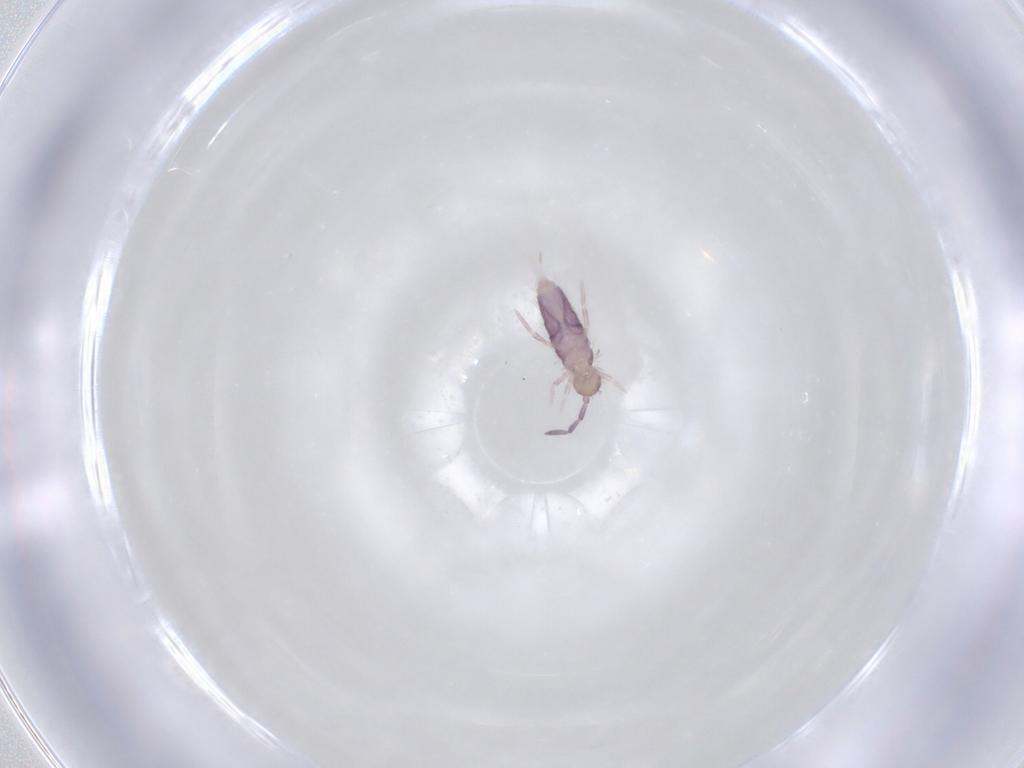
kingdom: Animalia
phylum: Arthropoda
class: Collembola
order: Entomobryomorpha
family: Entomobryidae
